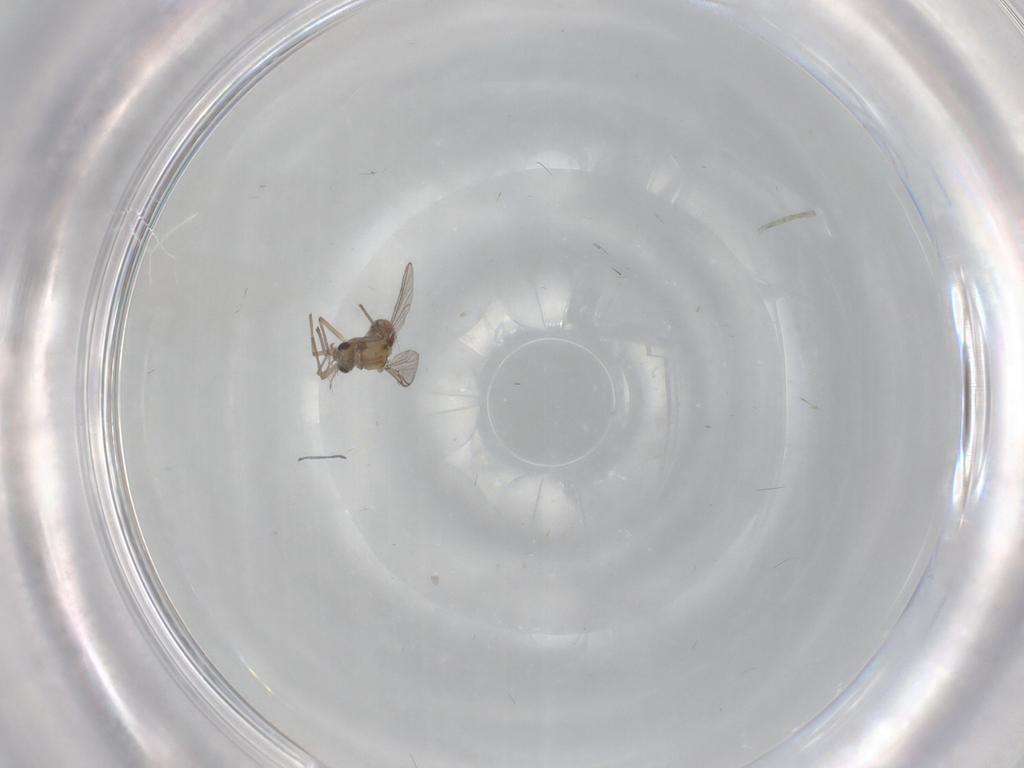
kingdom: Animalia
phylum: Arthropoda
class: Insecta
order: Diptera
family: Chironomidae
